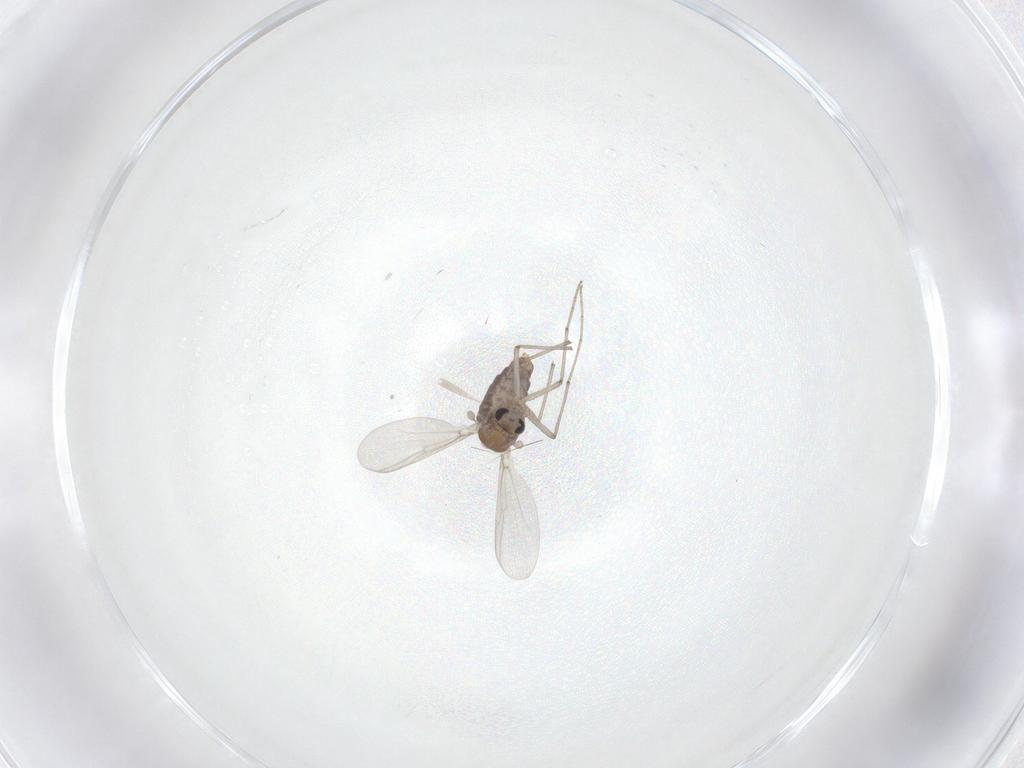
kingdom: Animalia
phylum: Arthropoda
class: Insecta
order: Diptera
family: Chironomidae
